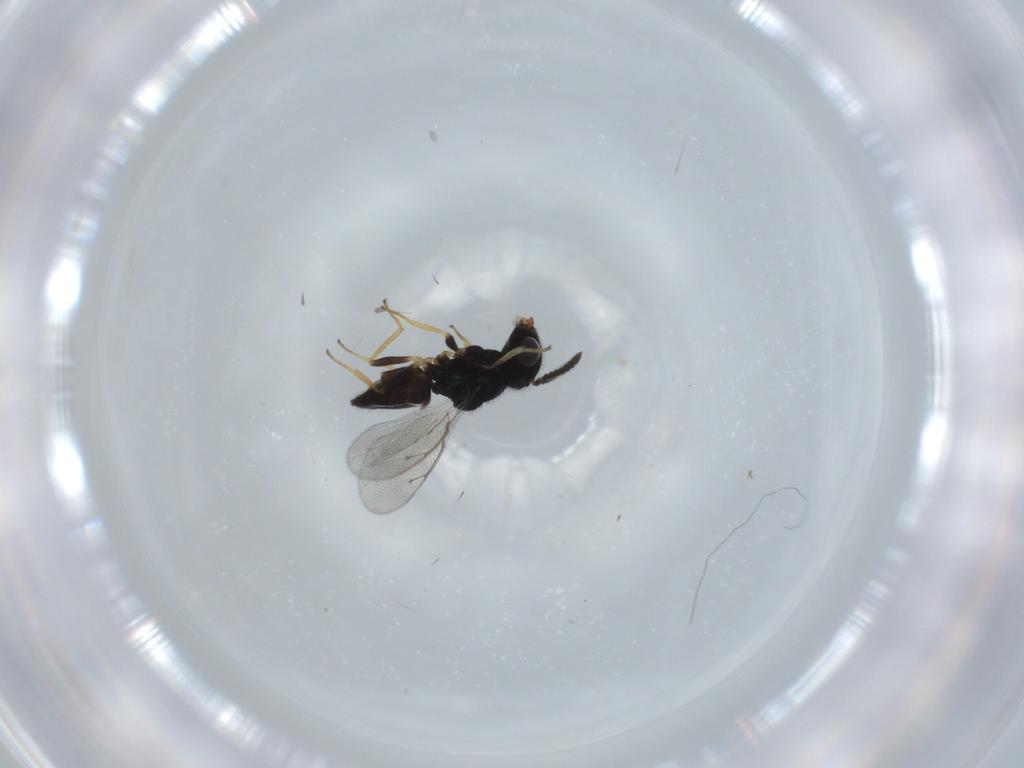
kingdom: Animalia
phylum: Arthropoda
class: Insecta
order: Hymenoptera
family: Pteromalidae
